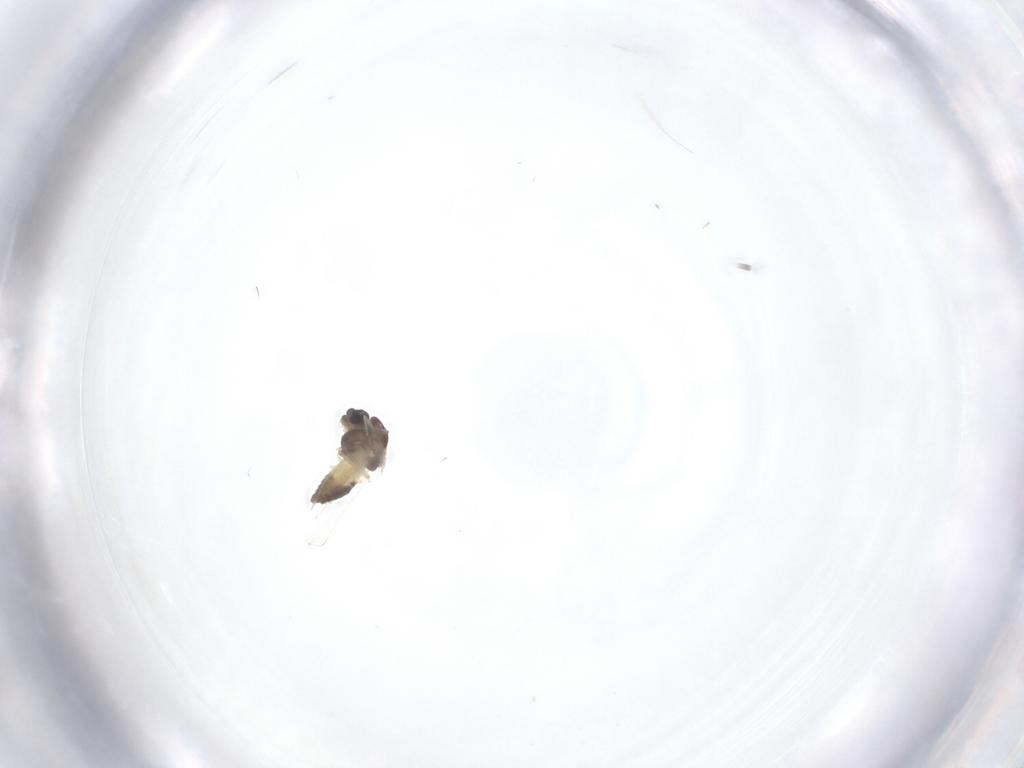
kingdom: Animalia
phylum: Arthropoda
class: Insecta
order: Diptera
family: Chironomidae
